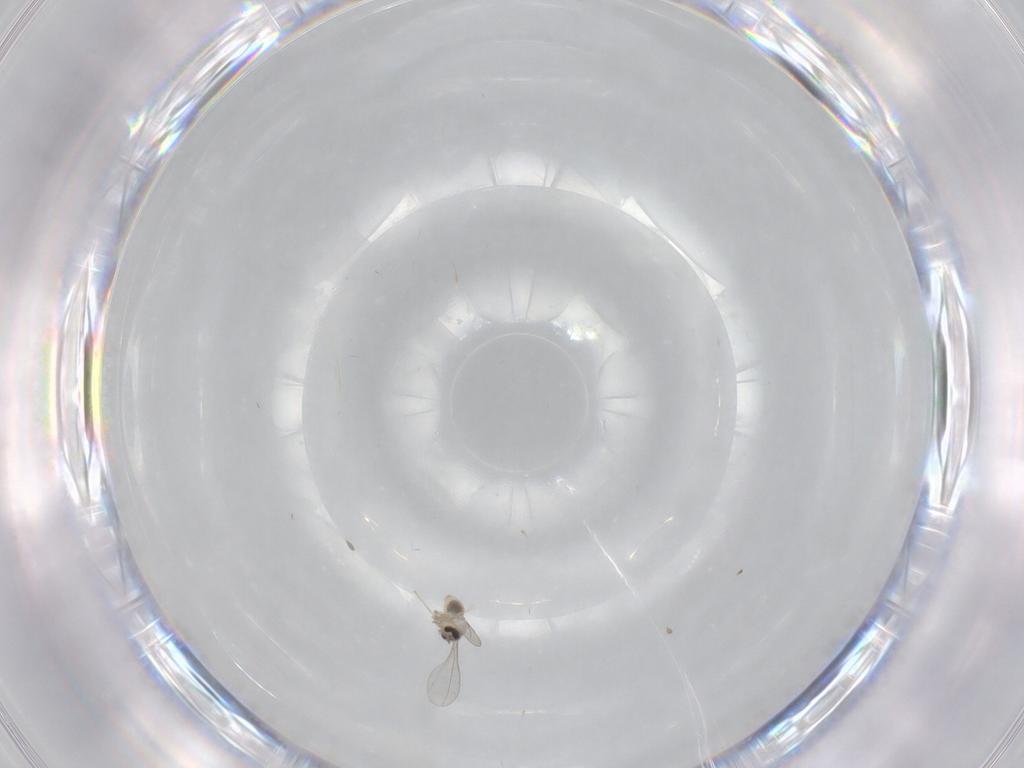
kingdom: Animalia
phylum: Arthropoda
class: Insecta
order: Diptera
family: Cecidomyiidae
